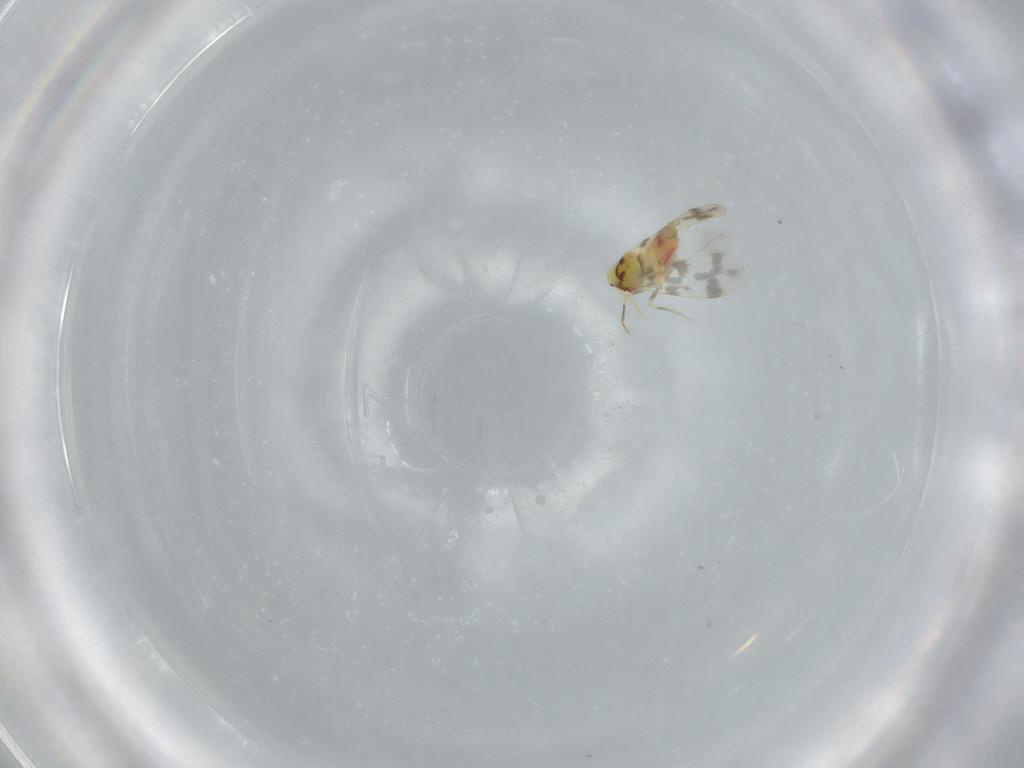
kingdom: Animalia
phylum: Arthropoda
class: Insecta
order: Hemiptera
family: Aleyrodidae
